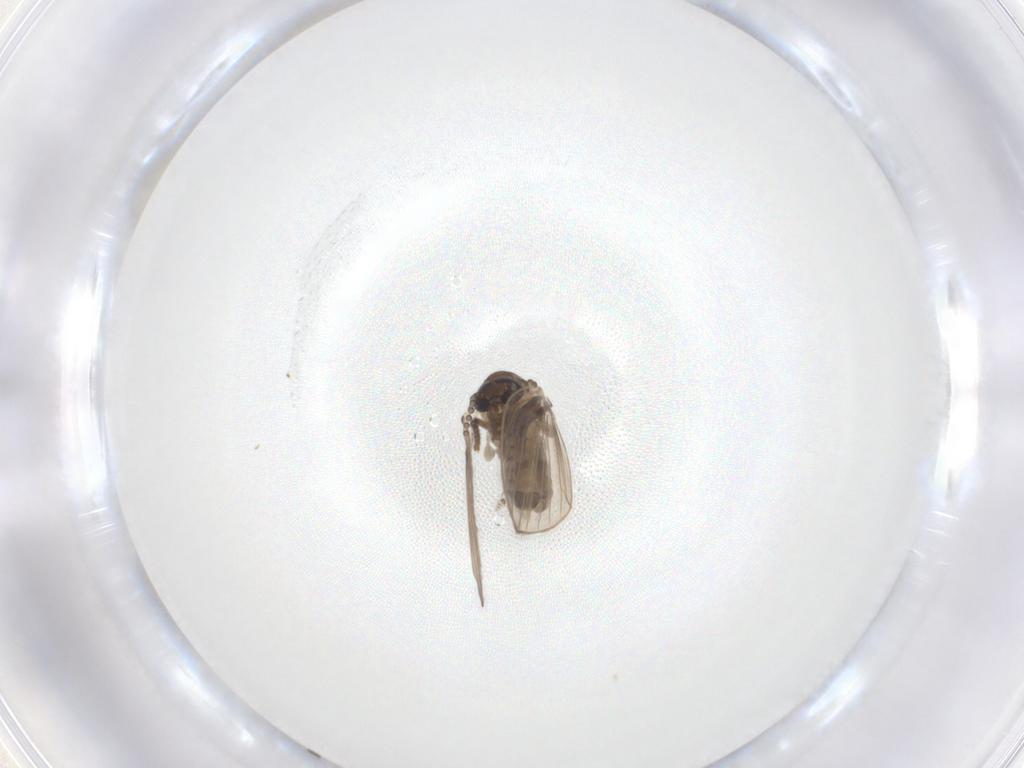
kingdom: Animalia
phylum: Arthropoda
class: Insecta
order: Diptera
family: Psychodidae
